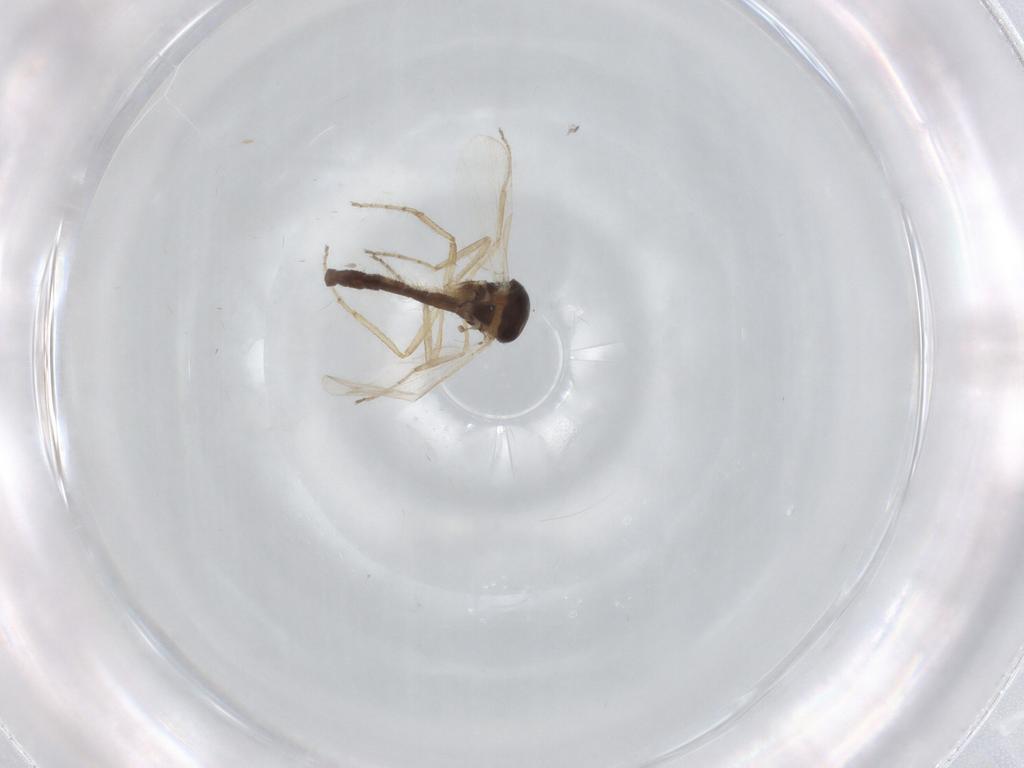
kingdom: Animalia
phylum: Arthropoda
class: Insecta
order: Diptera
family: Ceratopogonidae
